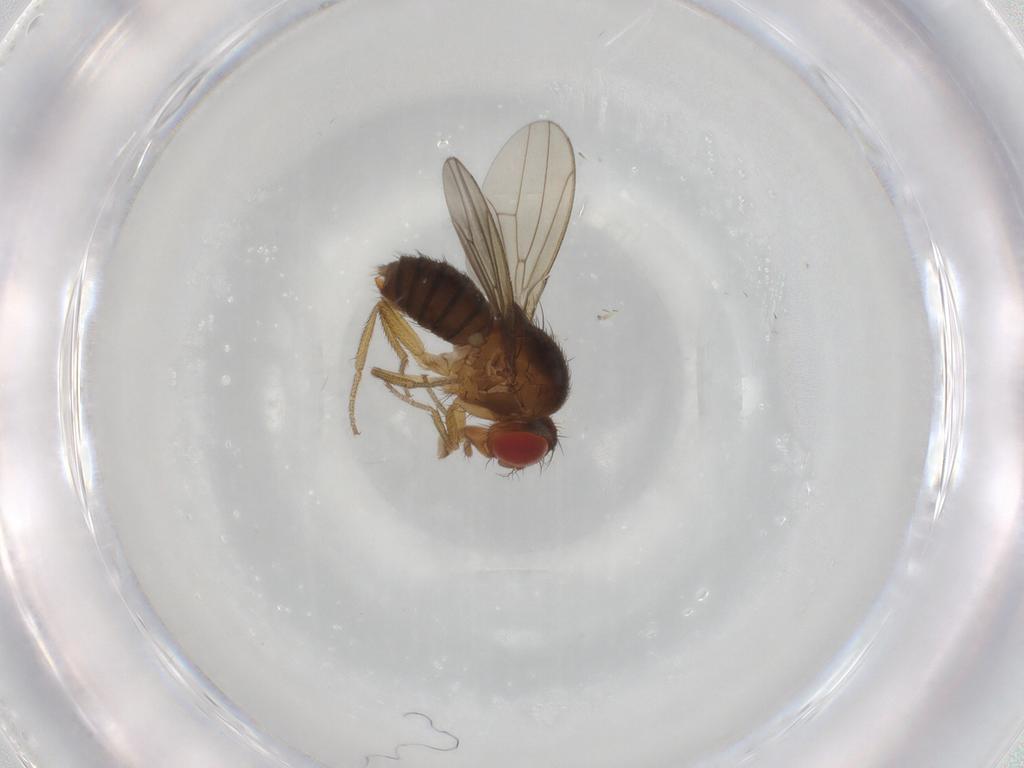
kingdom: Animalia
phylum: Arthropoda
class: Insecta
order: Diptera
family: Drosophilidae
